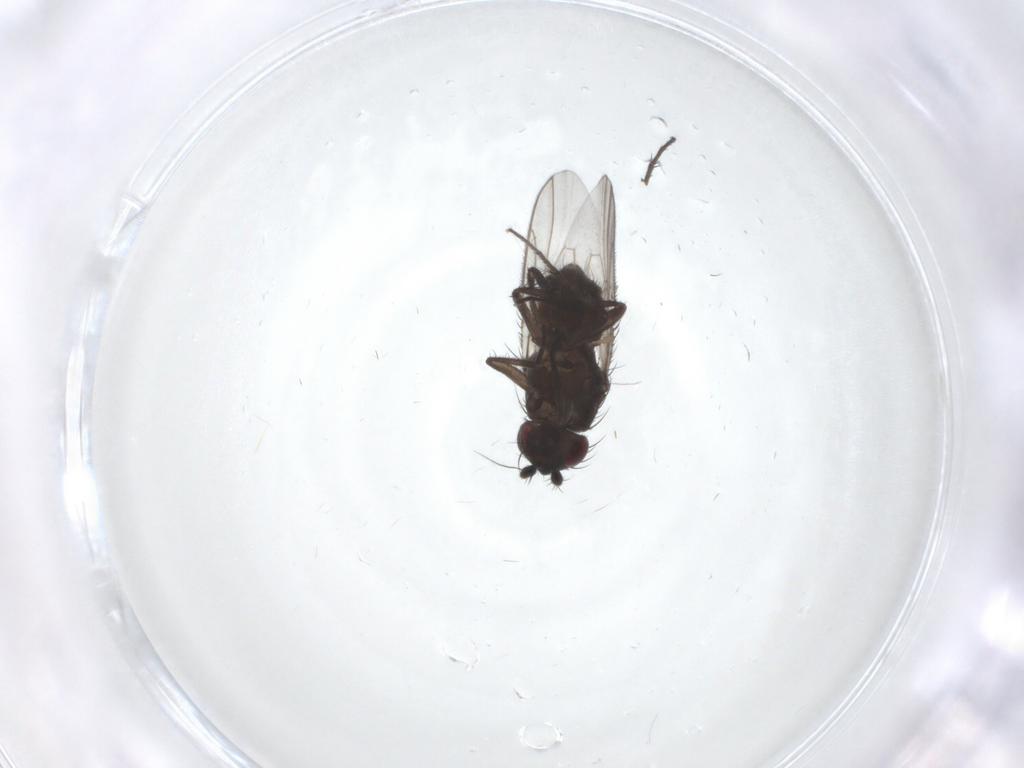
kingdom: Animalia
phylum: Arthropoda
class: Insecta
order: Diptera
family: Sphaeroceridae
